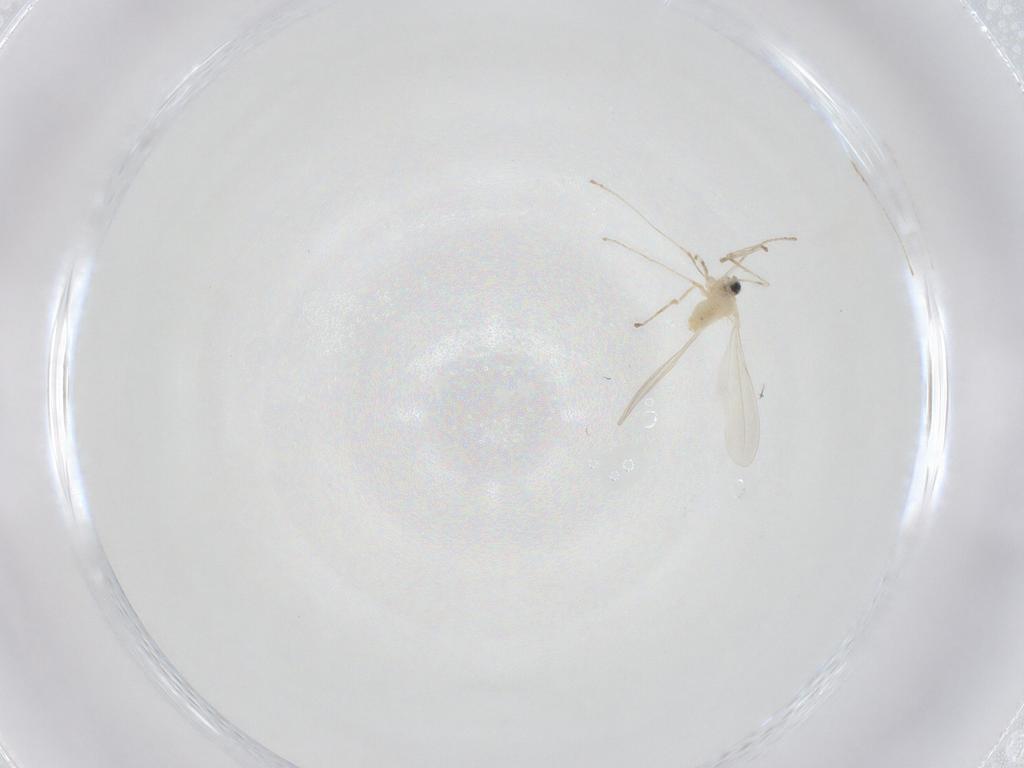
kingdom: Animalia
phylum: Arthropoda
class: Insecta
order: Diptera
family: Cecidomyiidae
